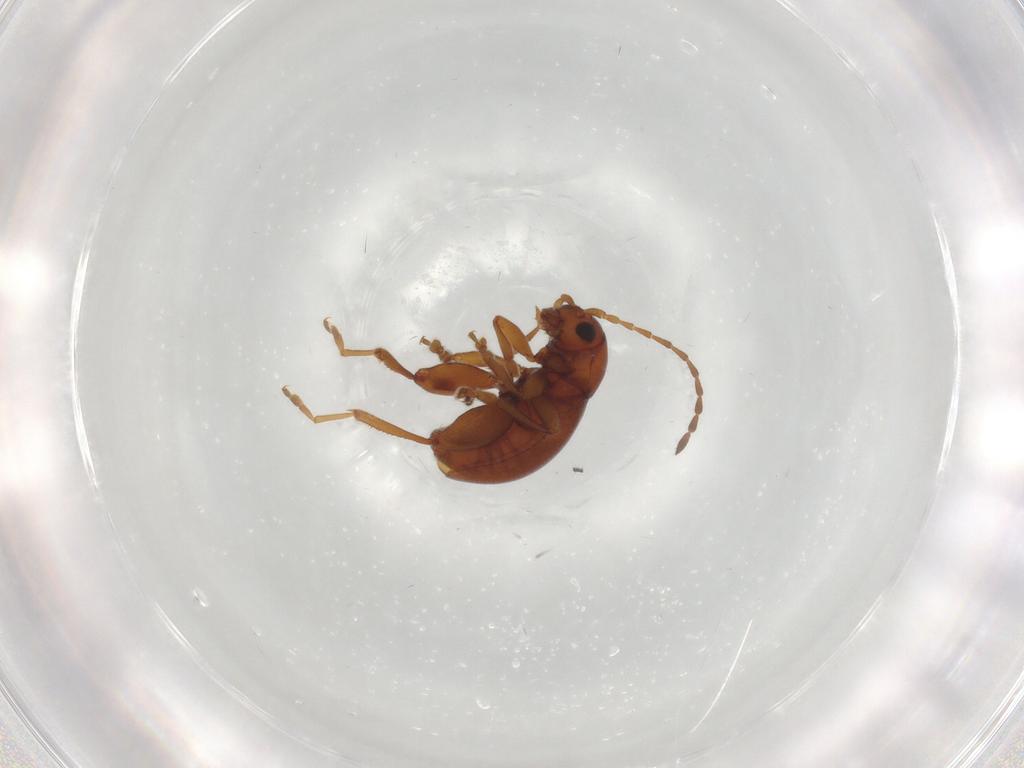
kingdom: Animalia
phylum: Arthropoda
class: Insecta
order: Coleoptera
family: Chrysomelidae
